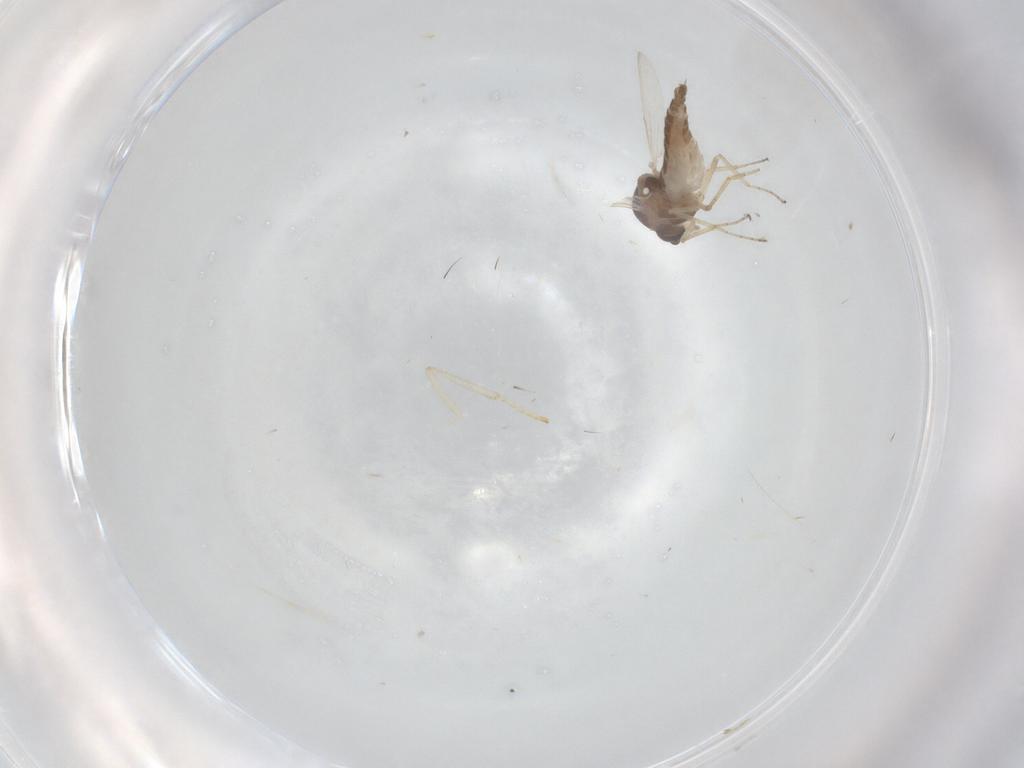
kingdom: Animalia
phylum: Arthropoda
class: Insecta
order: Diptera
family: Ceratopogonidae
